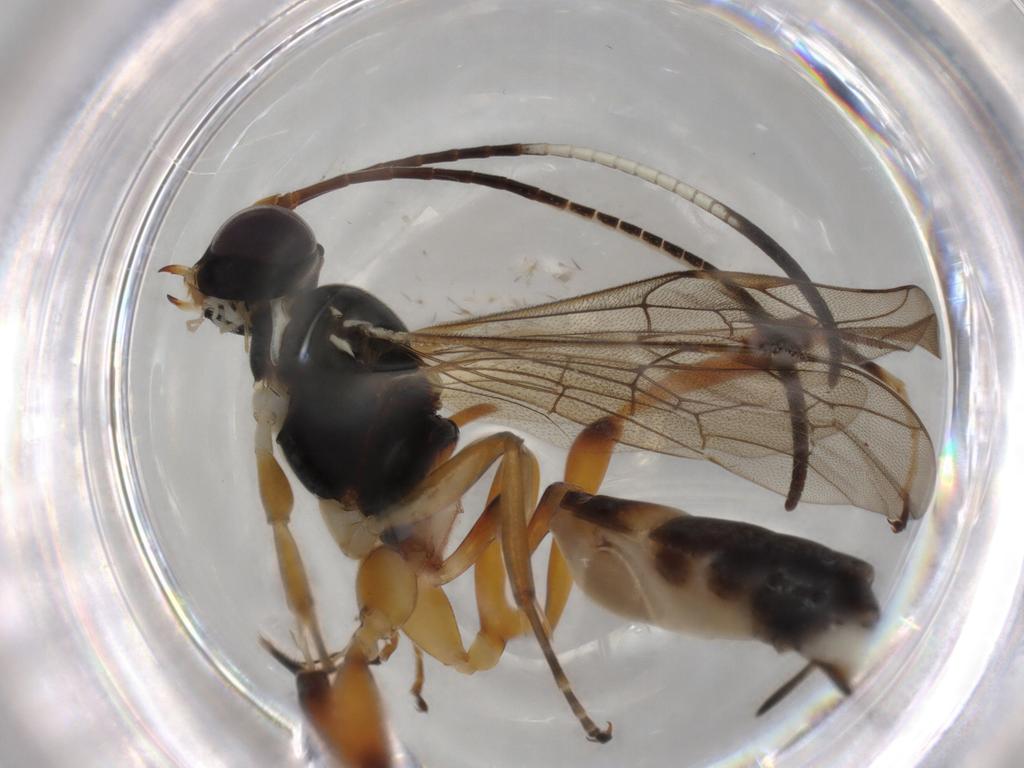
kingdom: Animalia
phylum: Arthropoda
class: Insecta
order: Hymenoptera
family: Ichneumonidae
